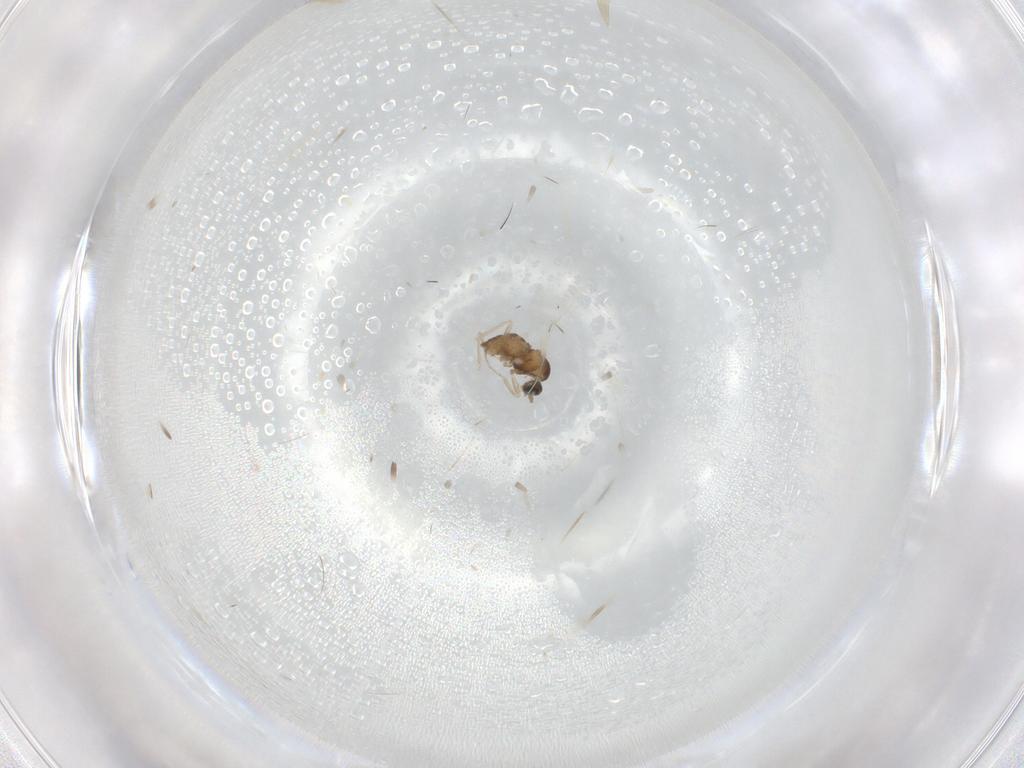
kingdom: Animalia
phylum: Arthropoda
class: Insecta
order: Diptera
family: Cecidomyiidae
